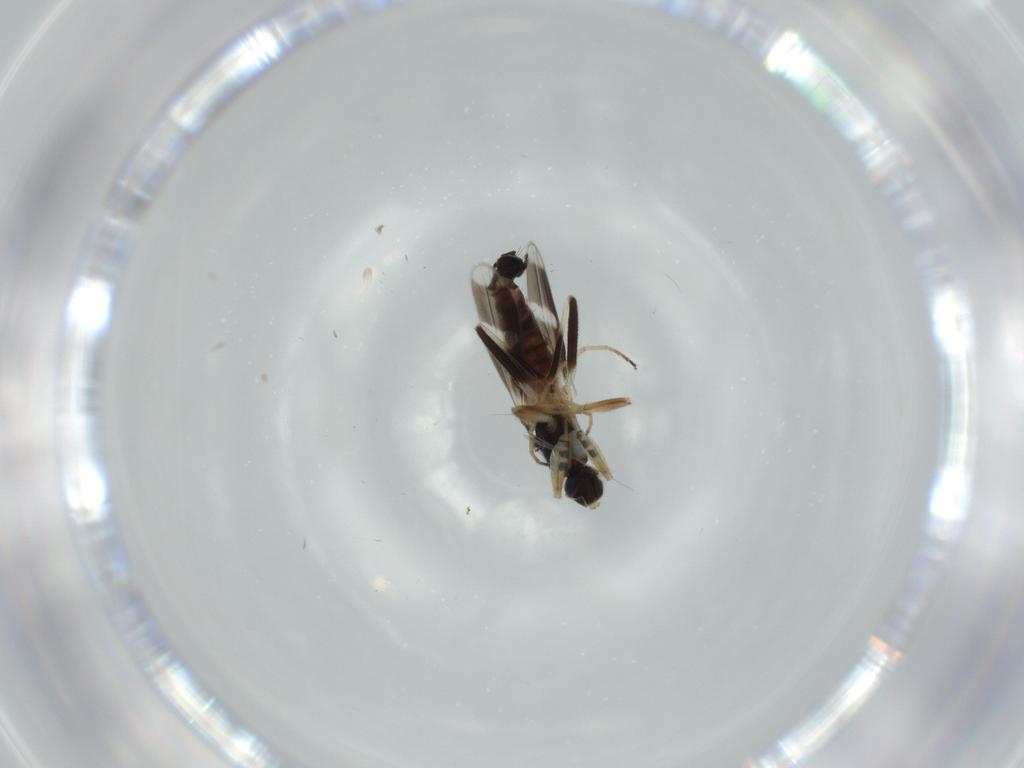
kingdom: Animalia
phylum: Arthropoda
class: Insecta
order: Diptera
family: Hybotidae
